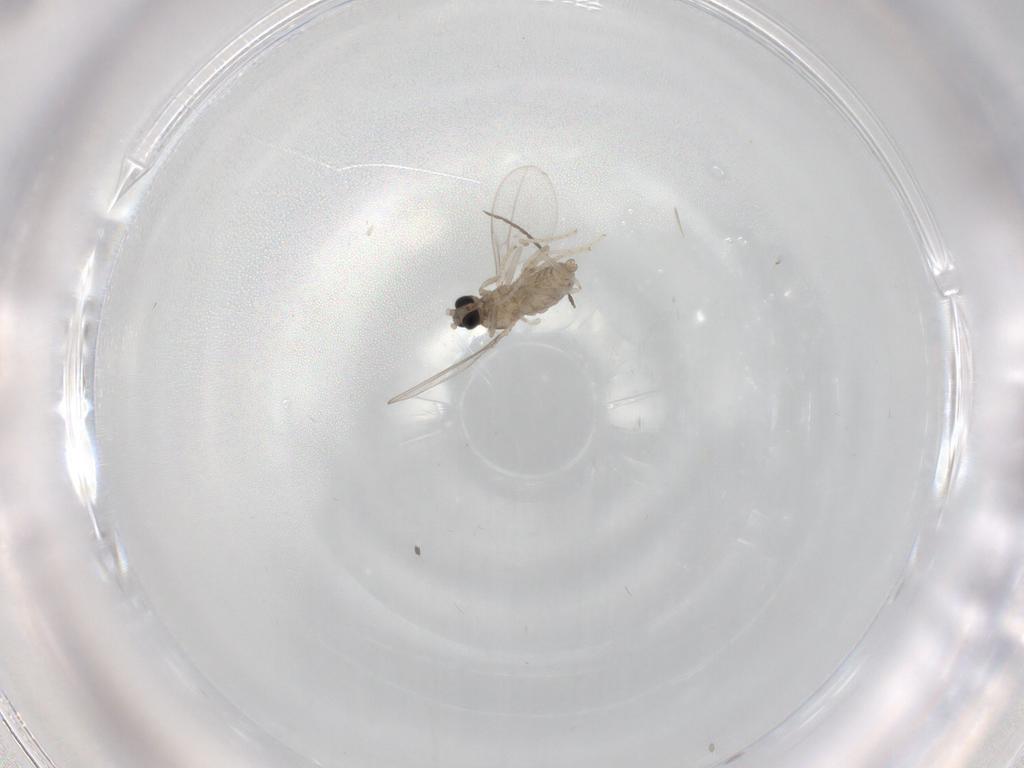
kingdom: Animalia
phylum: Arthropoda
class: Insecta
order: Diptera
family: Cecidomyiidae
